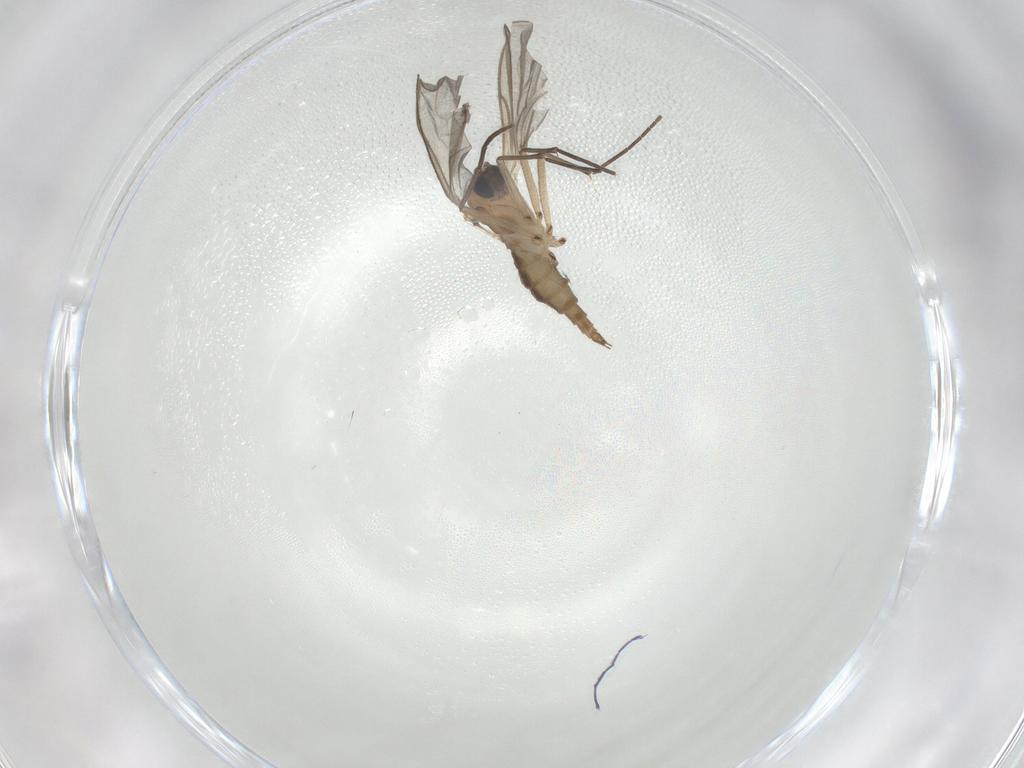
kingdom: Animalia
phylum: Arthropoda
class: Insecta
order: Diptera
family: Sciaridae
